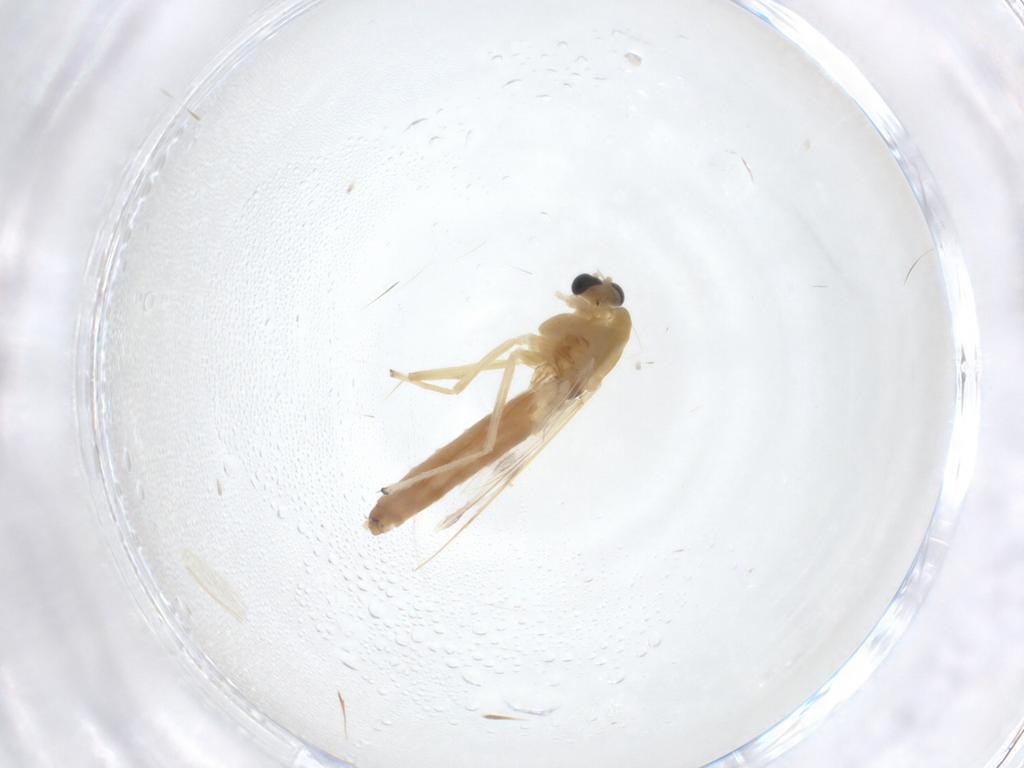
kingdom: Animalia
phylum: Arthropoda
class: Insecta
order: Diptera
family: Chironomidae
